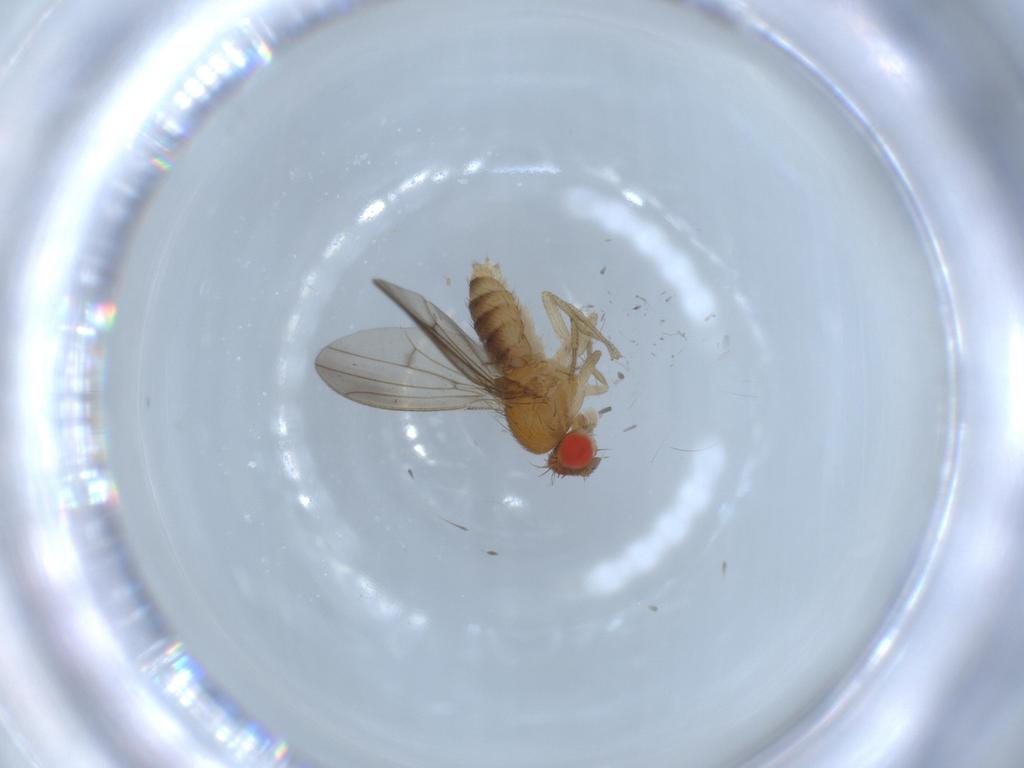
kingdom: Animalia
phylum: Arthropoda
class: Insecta
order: Diptera
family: Drosophilidae
